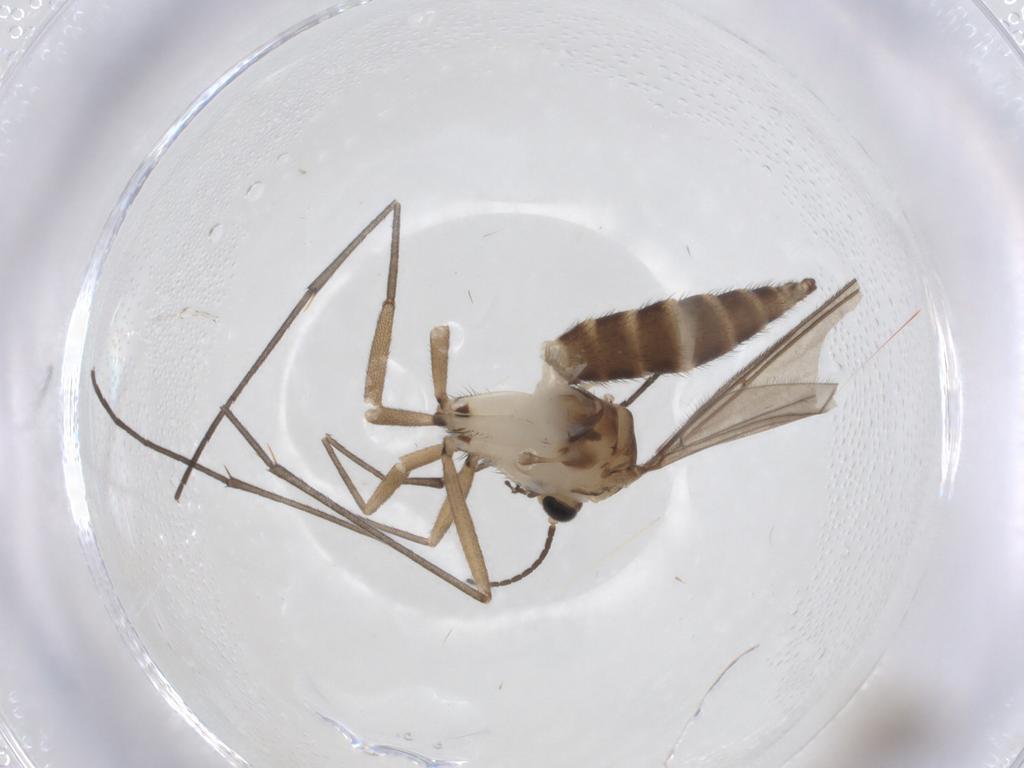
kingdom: Animalia
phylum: Arthropoda
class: Insecta
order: Diptera
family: Sciaridae
